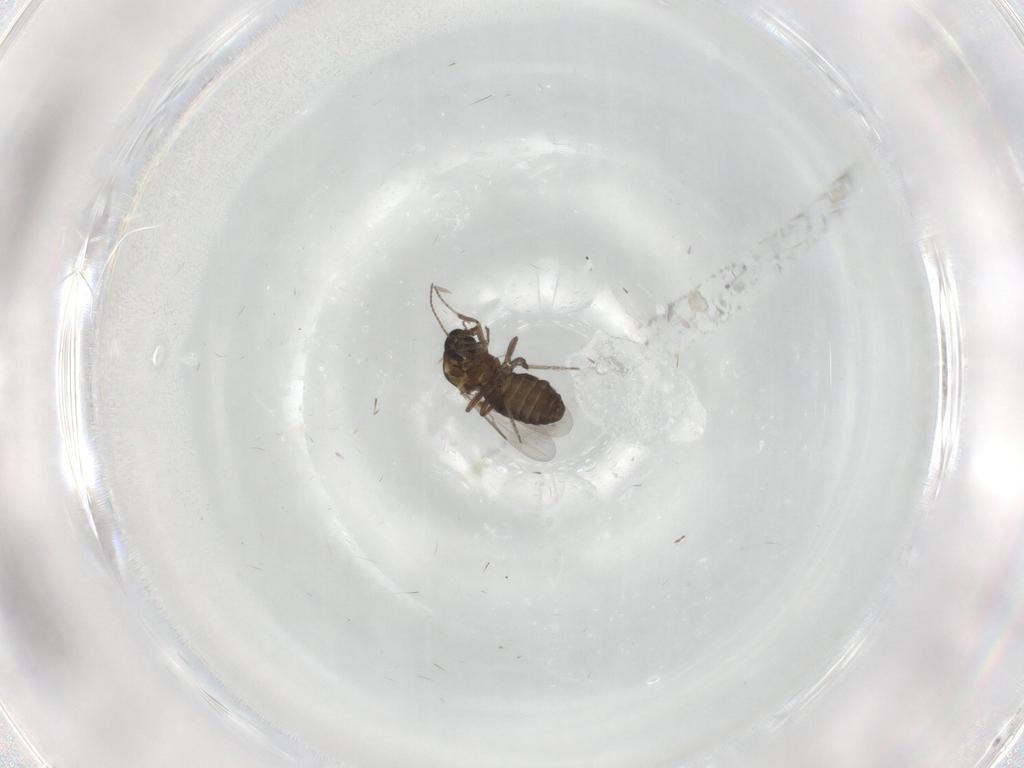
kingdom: Animalia
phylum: Arthropoda
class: Insecta
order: Diptera
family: Ceratopogonidae
